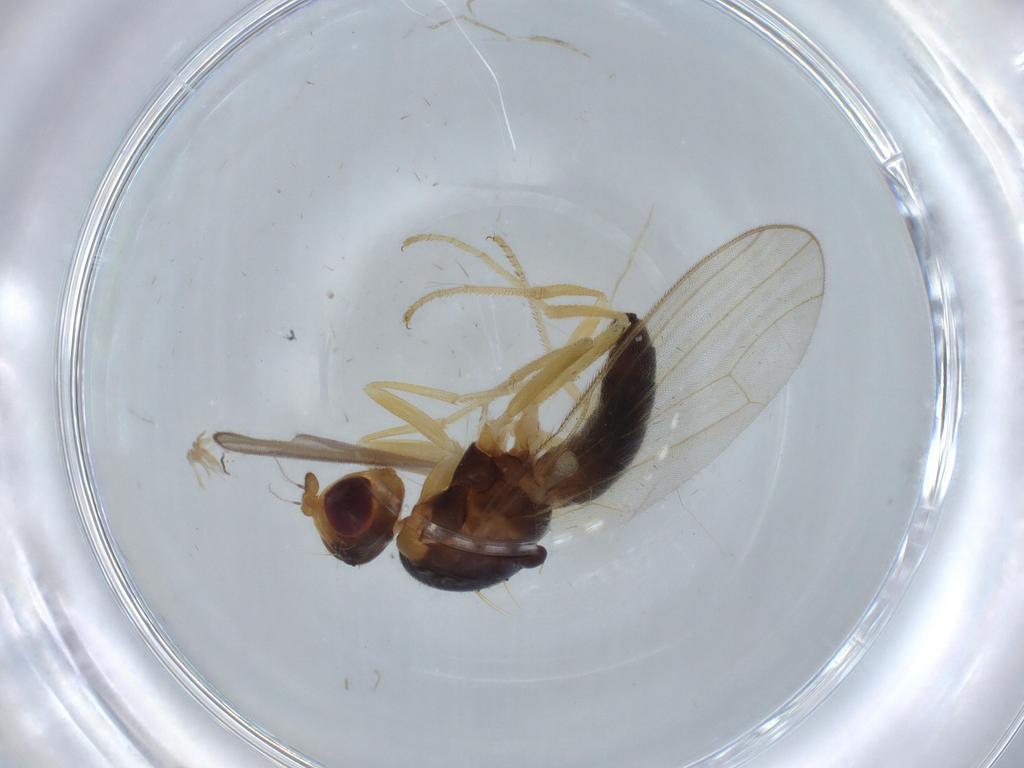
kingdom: Animalia
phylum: Arthropoda
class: Insecta
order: Diptera
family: Empididae
